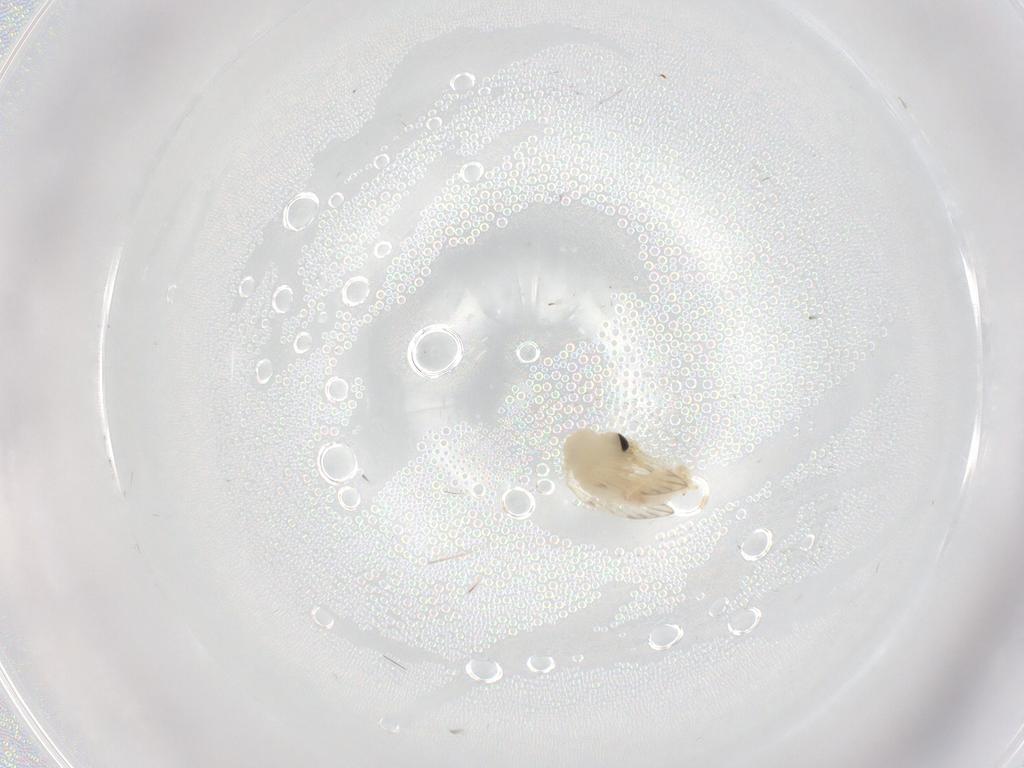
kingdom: Animalia
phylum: Arthropoda
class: Insecta
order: Diptera
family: Psychodidae
